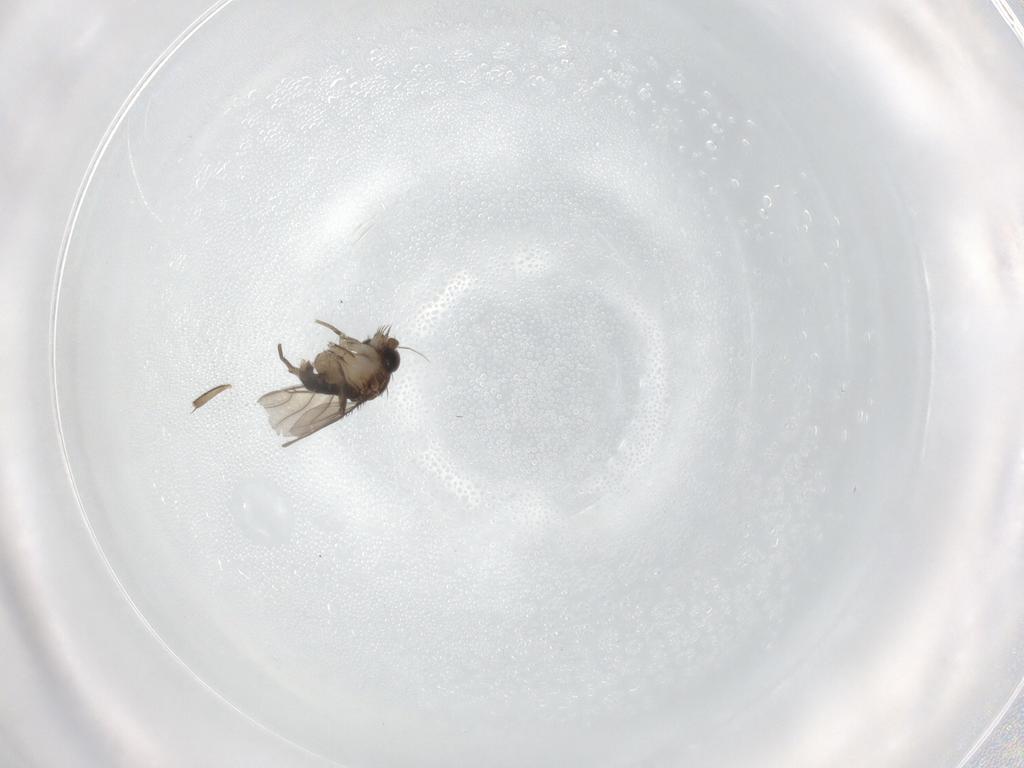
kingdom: Animalia
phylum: Arthropoda
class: Insecta
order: Diptera
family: Phoridae
